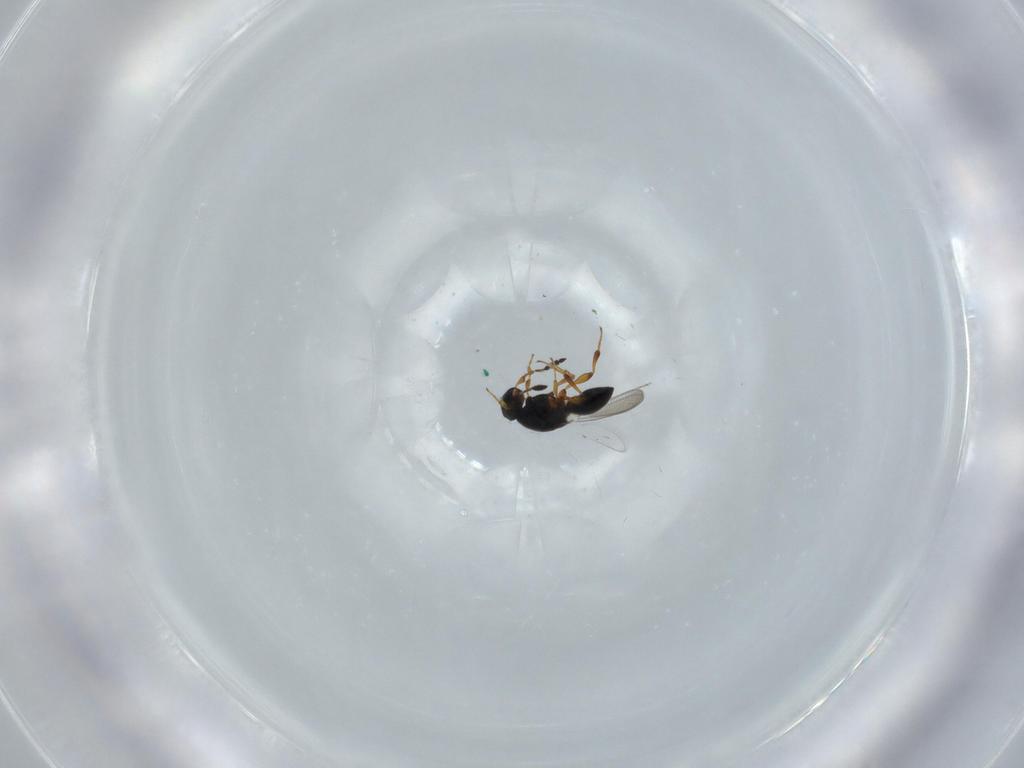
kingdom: Animalia
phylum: Arthropoda
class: Insecta
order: Hymenoptera
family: Platygastridae
